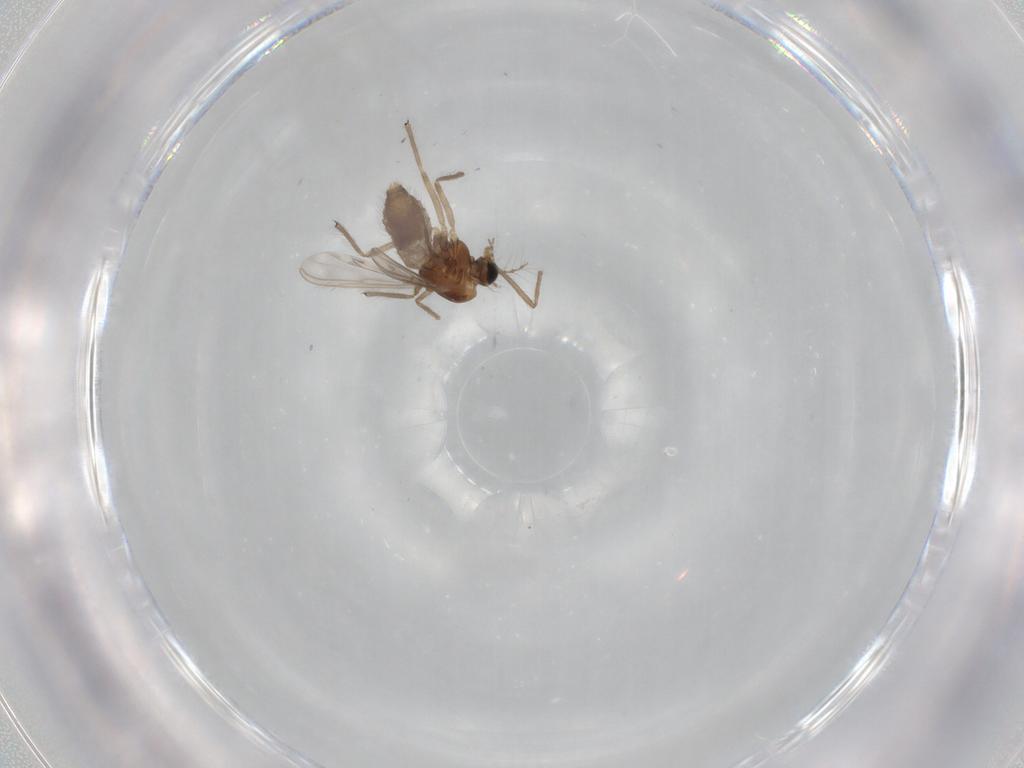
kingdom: Animalia
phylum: Arthropoda
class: Insecta
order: Diptera
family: Chironomidae
